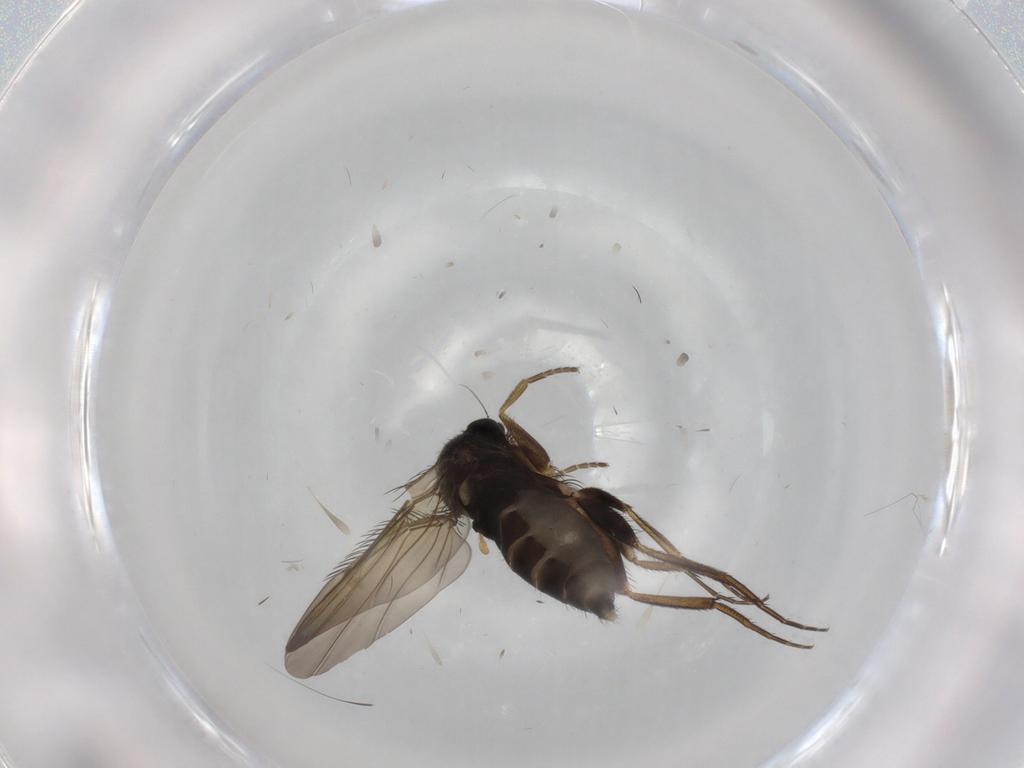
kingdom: Animalia
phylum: Arthropoda
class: Insecta
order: Diptera
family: Phoridae
